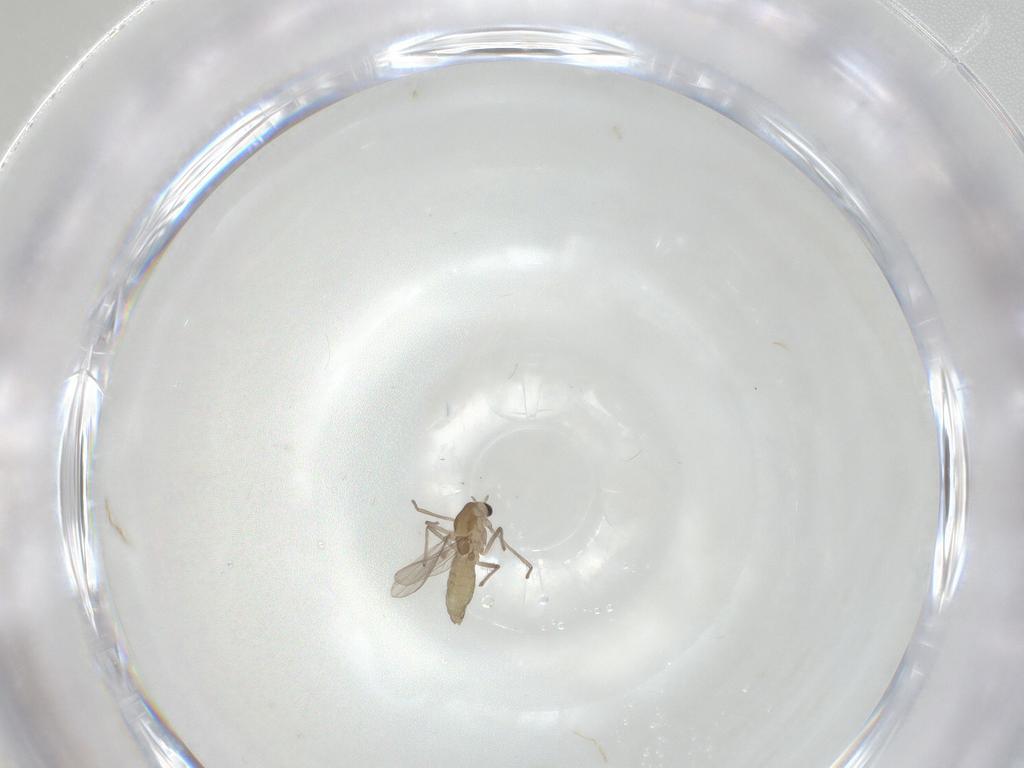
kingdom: Animalia
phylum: Arthropoda
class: Insecta
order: Diptera
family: Chironomidae
